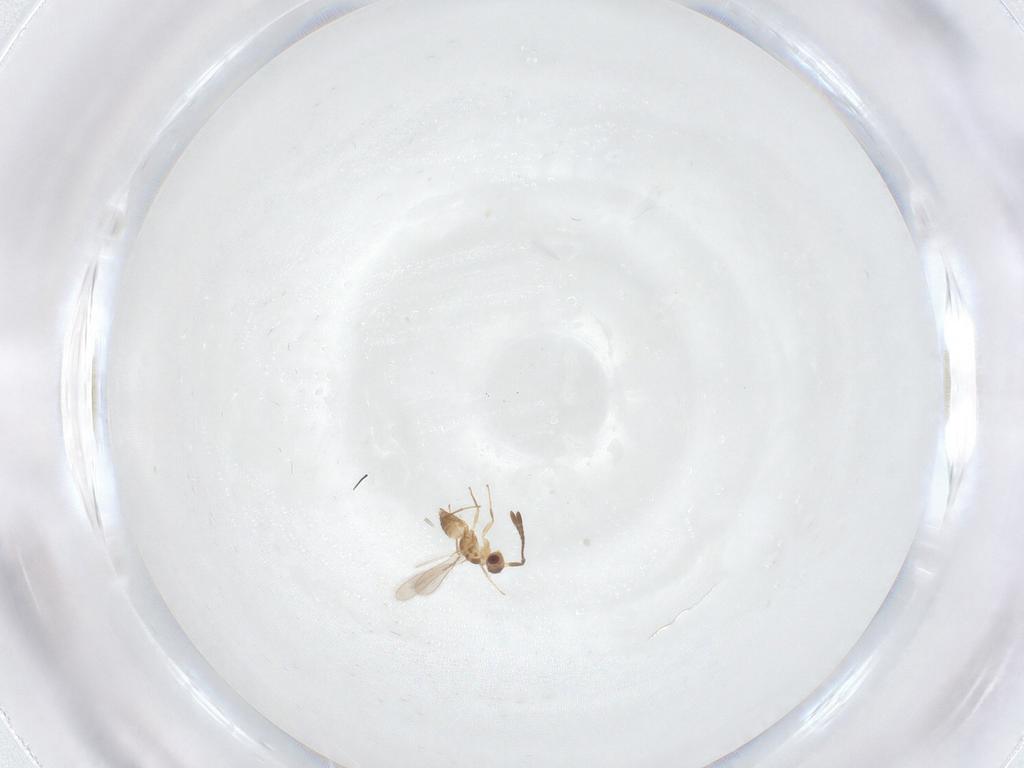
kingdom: Animalia
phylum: Arthropoda
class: Insecta
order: Hymenoptera
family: Mymaridae
